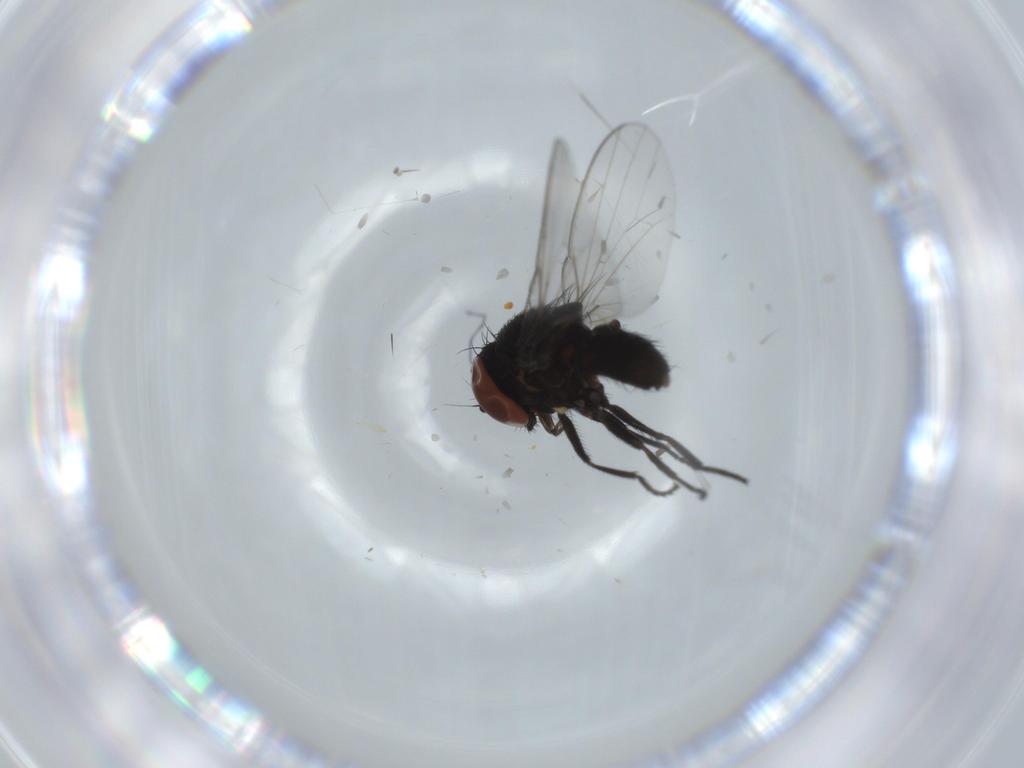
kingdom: Animalia
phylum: Arthropoda
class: Insecta
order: Diptera
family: Milichiidae
